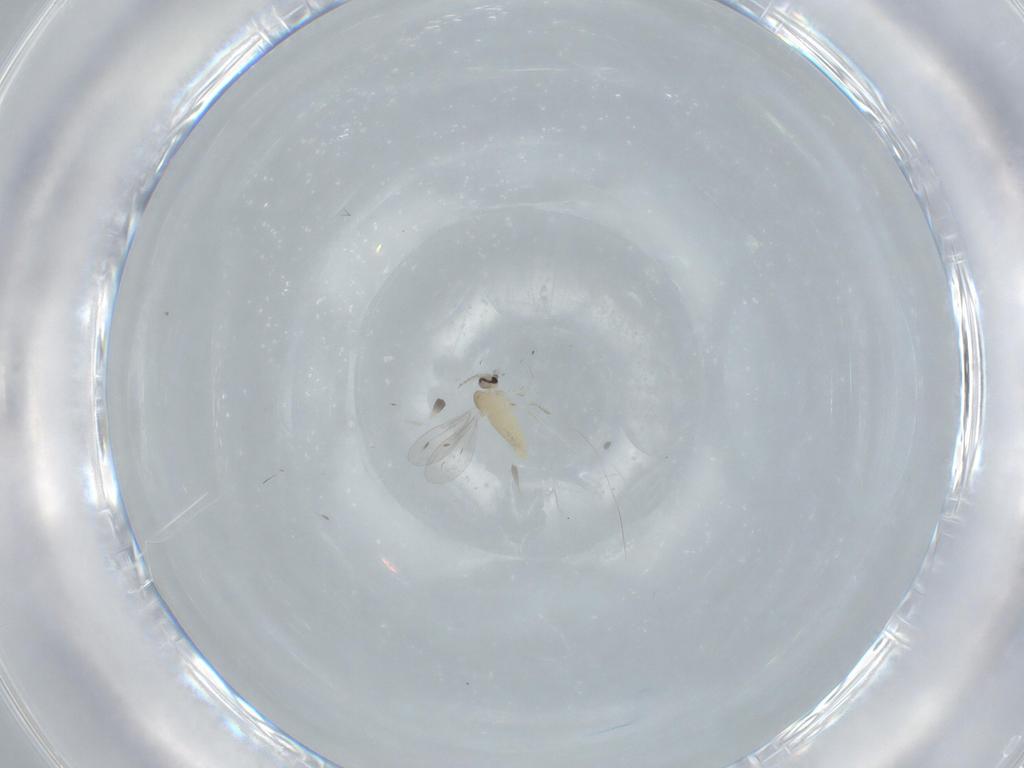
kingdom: Animalia
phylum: Arthropoda
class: Insecta
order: Diptera
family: Cecidomyiidae
